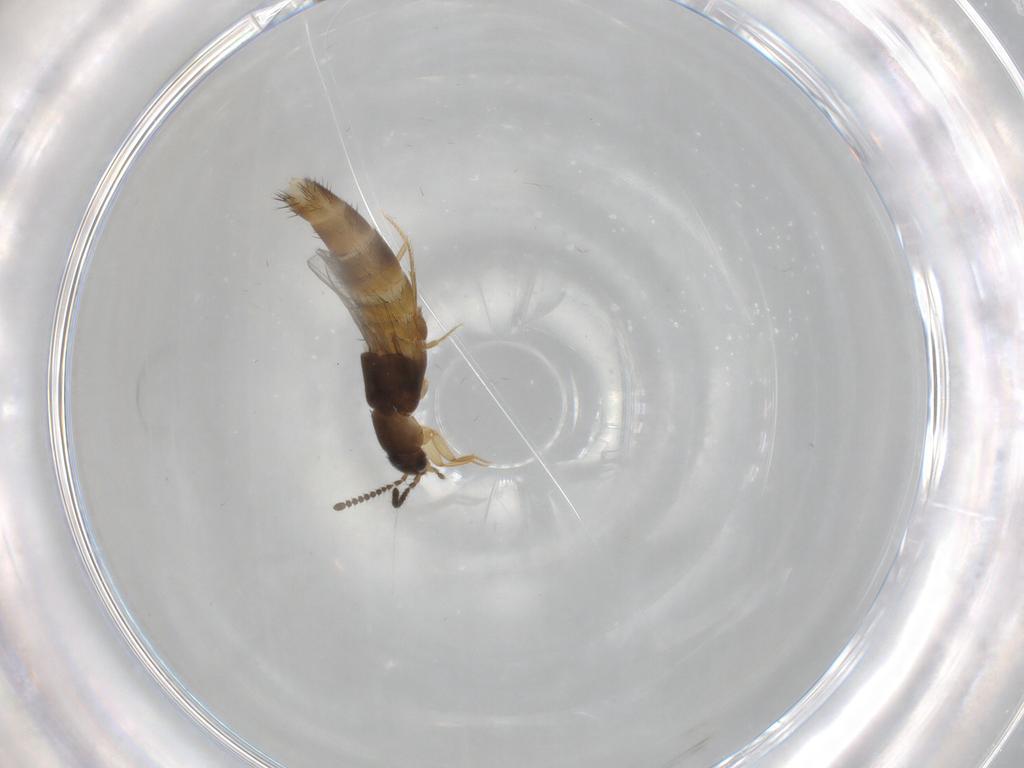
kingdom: Animalia
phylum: Arthropoda
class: Insecta
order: Coleoptera
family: Staphylinidae
